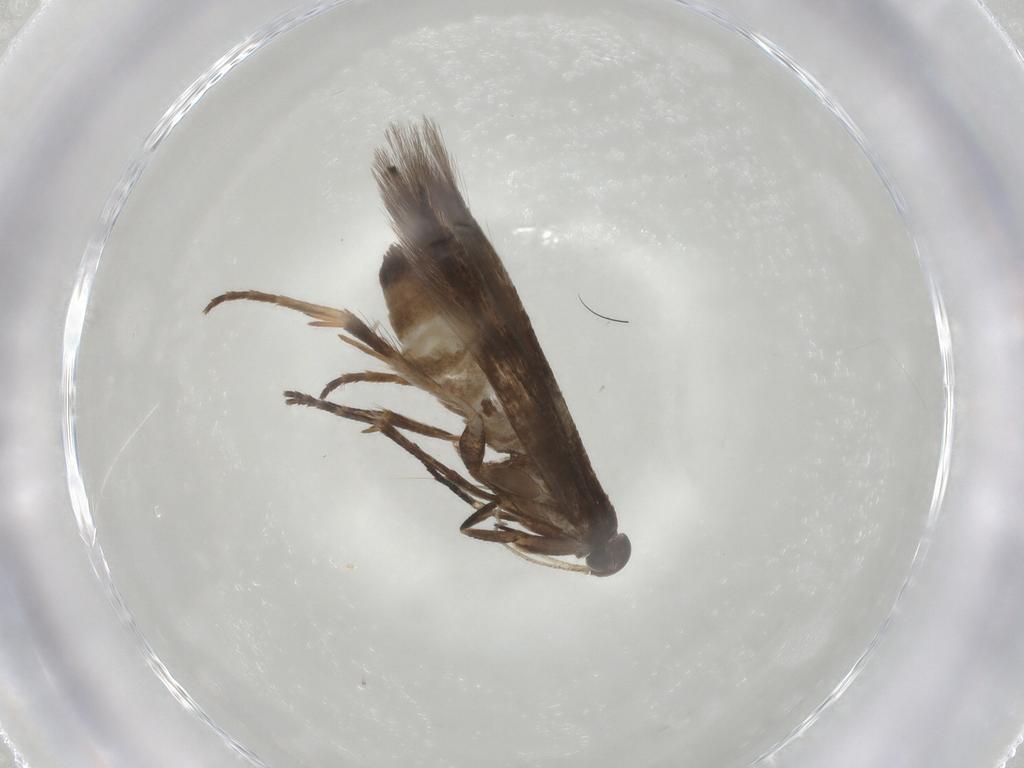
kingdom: Animalia
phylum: Arthropoda
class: Insecta
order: Lepidoptera
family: Gelechiidae
